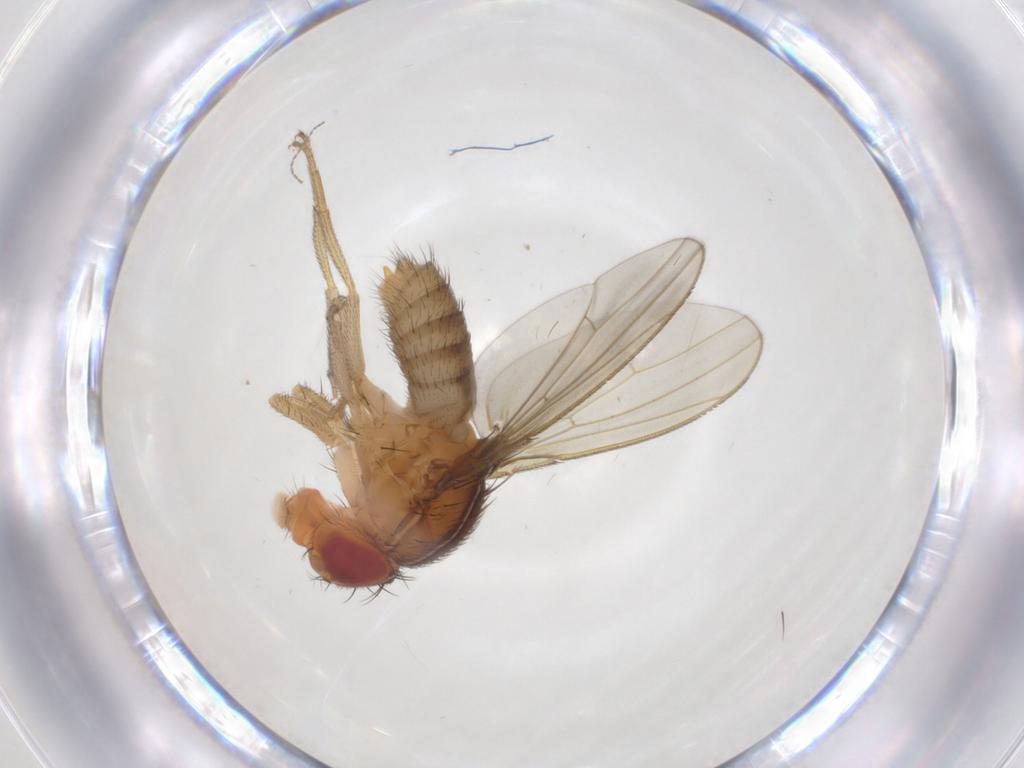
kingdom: Animalia
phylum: Arthropoda
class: Insecta
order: Diptera
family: Drosophilidae
